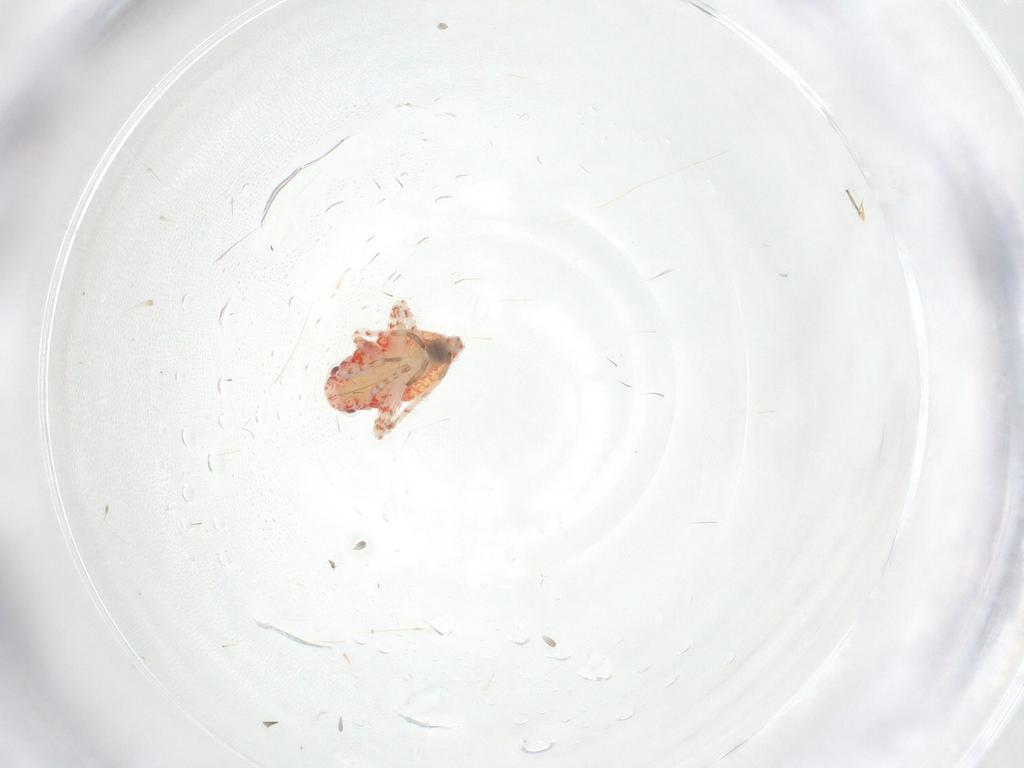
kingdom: Animalia
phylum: Arthropoda
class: Insecta
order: Hemiptera
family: Miridae
